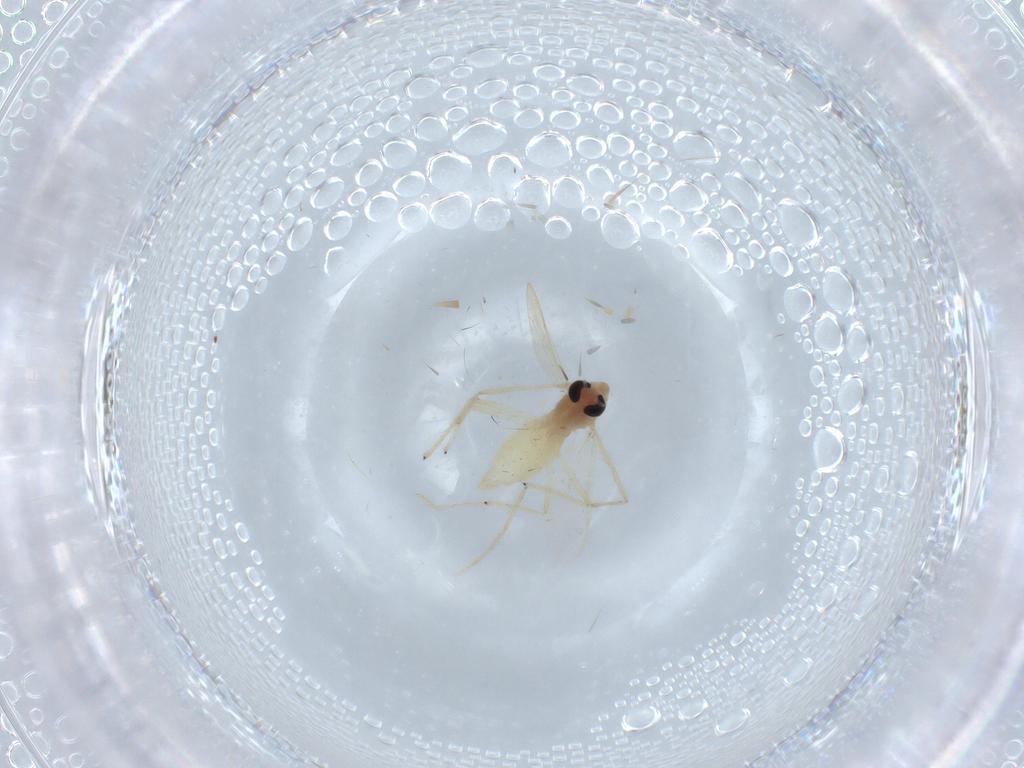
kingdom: Animalia
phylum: Arthropoda
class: Insecta
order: Diptera
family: Chironomidae
